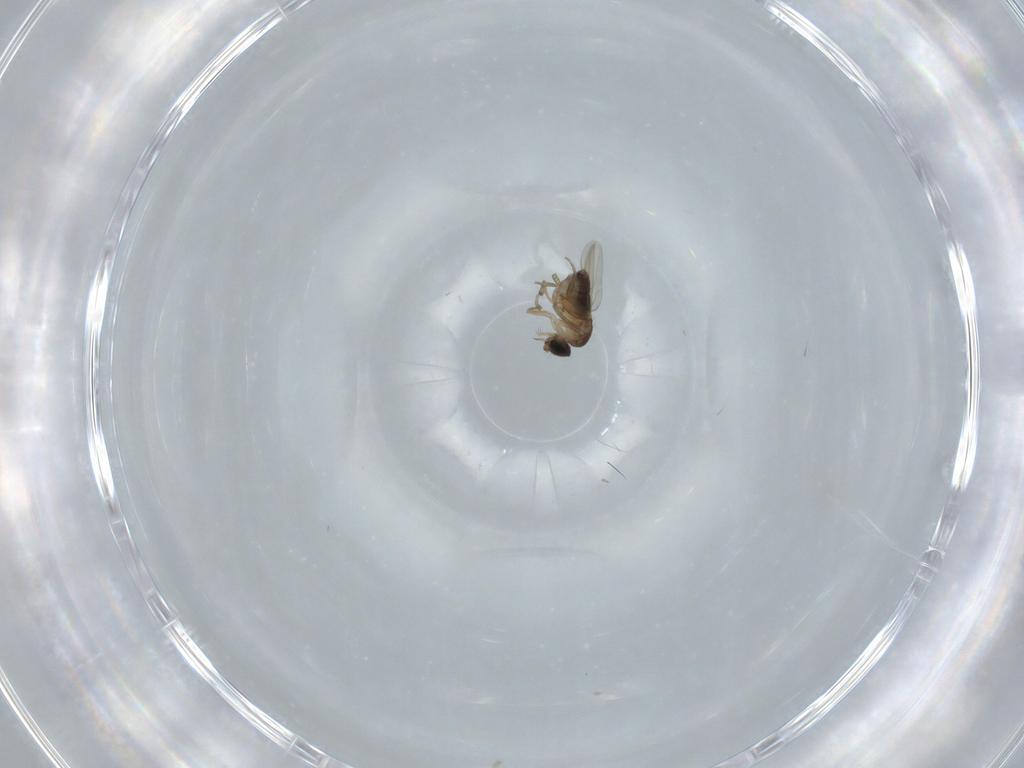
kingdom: Animalia
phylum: Arthropoda
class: Insecta
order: Diptera
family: Phoridae
